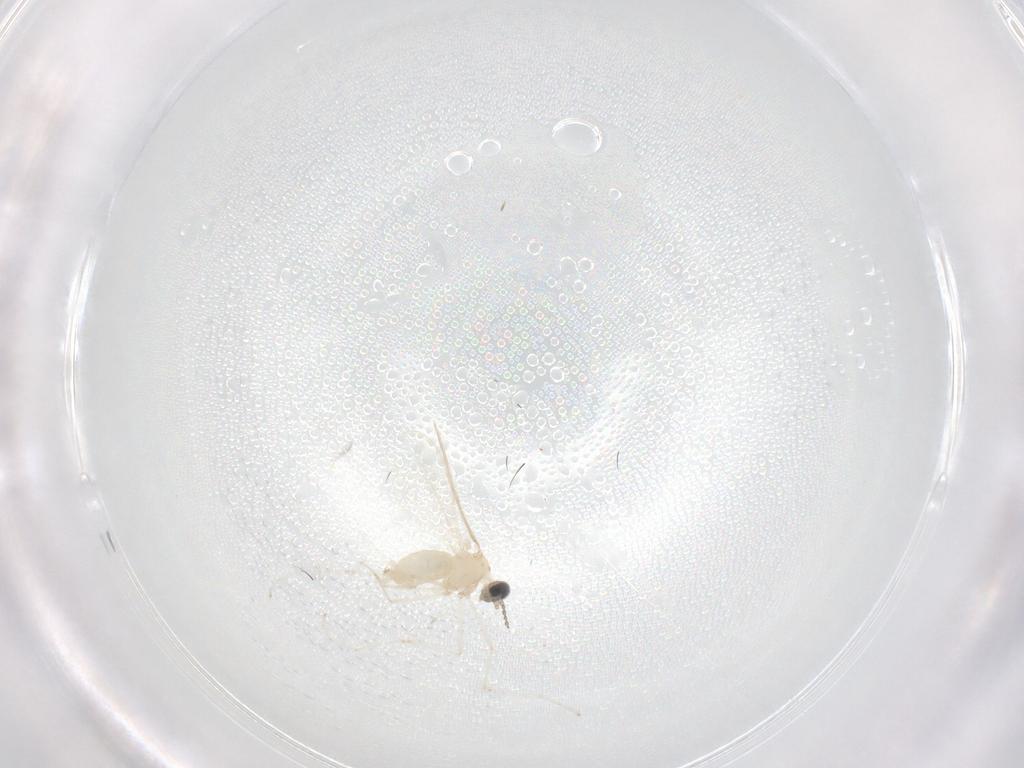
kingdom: Animalia
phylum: Arthropoda
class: Insecta
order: Diptera
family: Cecidomyiidae
